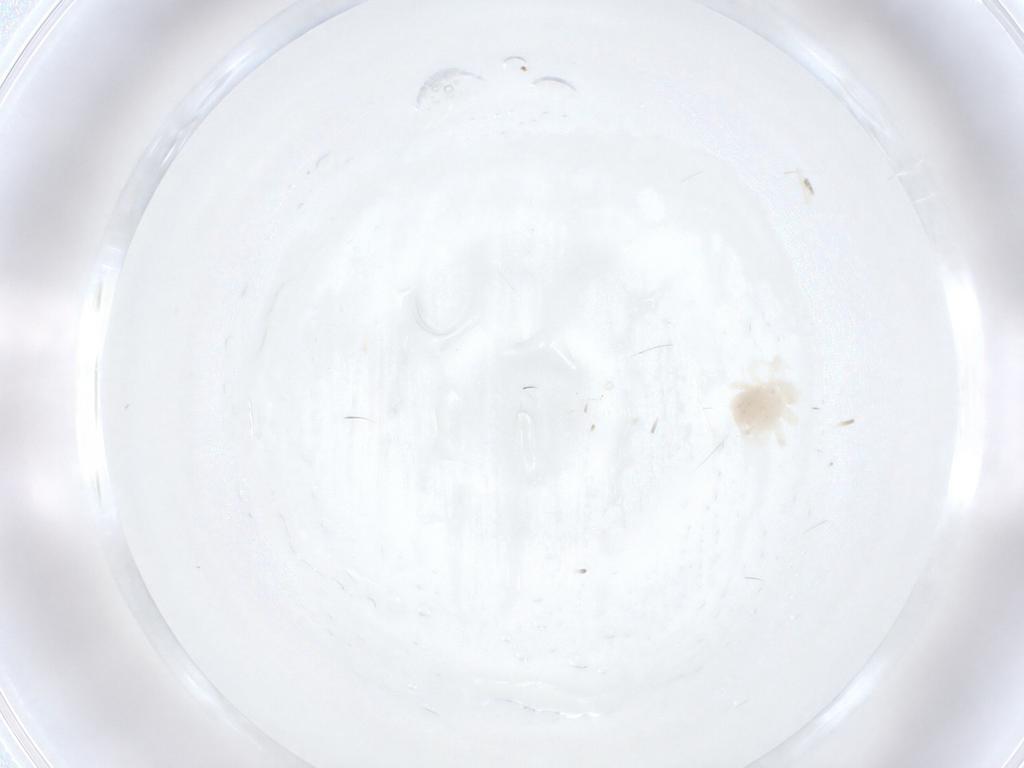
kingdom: Animalia
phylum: Arthropoda
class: Arachnida
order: Trombidiformes
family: Anystidae
